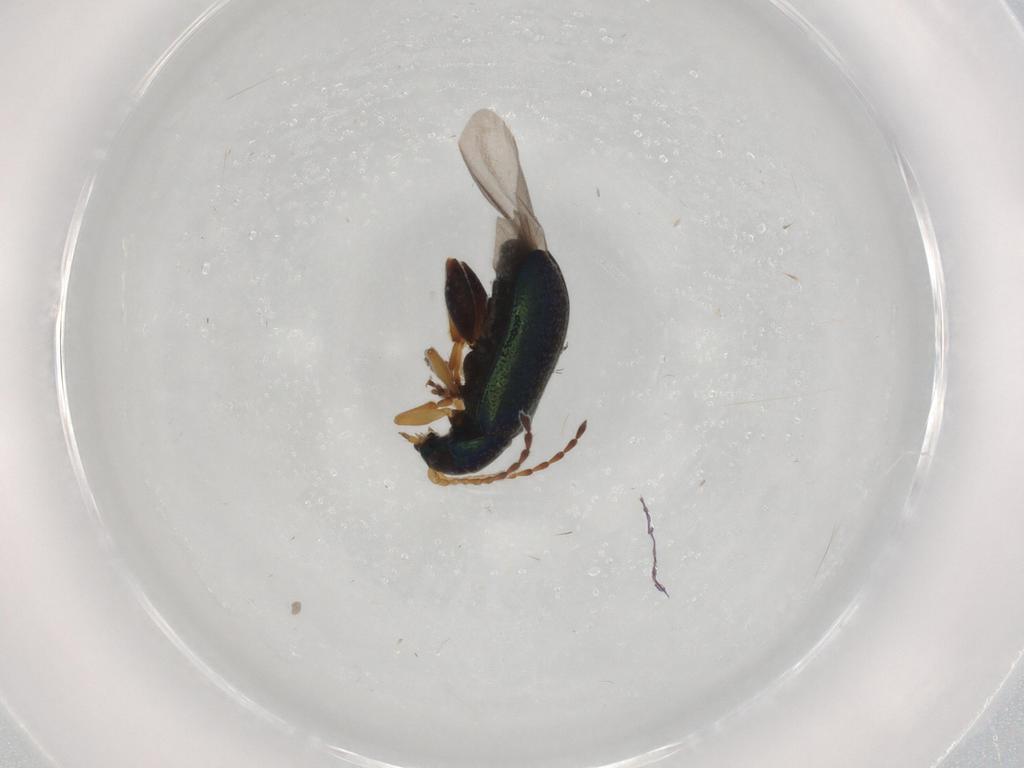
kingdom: Animalia
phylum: Arthropoda
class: Insecta
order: Coleoptera
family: Chrysomelidae
